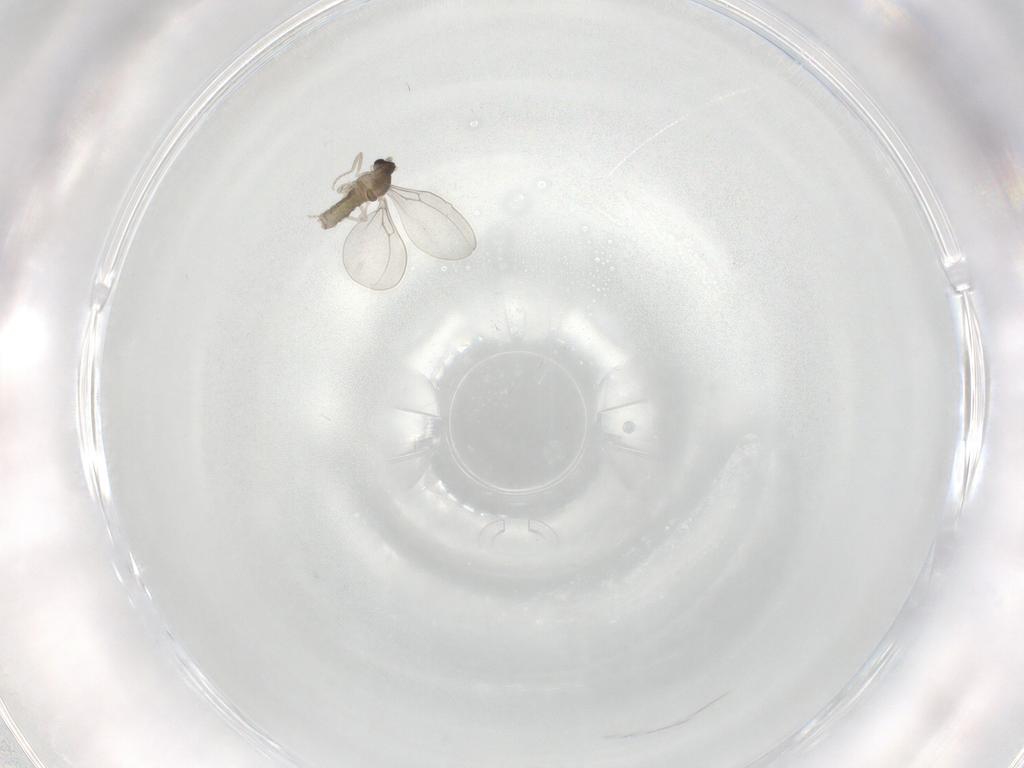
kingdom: Animalia
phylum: Arthropoda
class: Insecta
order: Diptera
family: Cecidomyiidae
